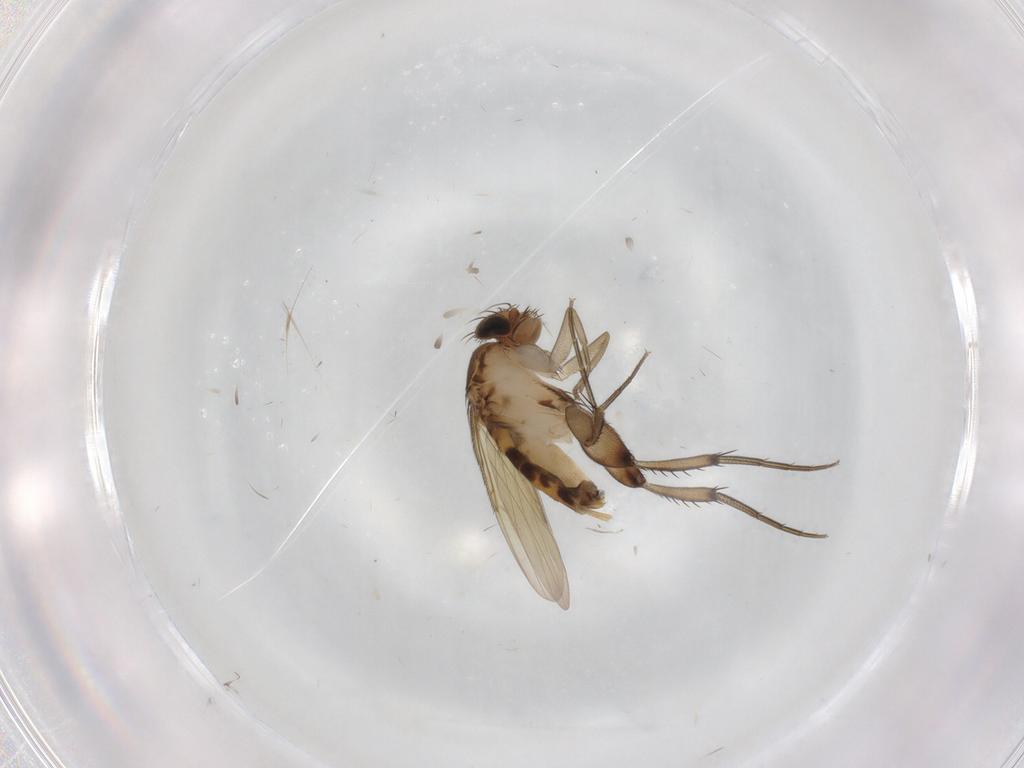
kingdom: Animalia
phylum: Arthropoda
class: Insecta
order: Diptera
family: Phoridae
